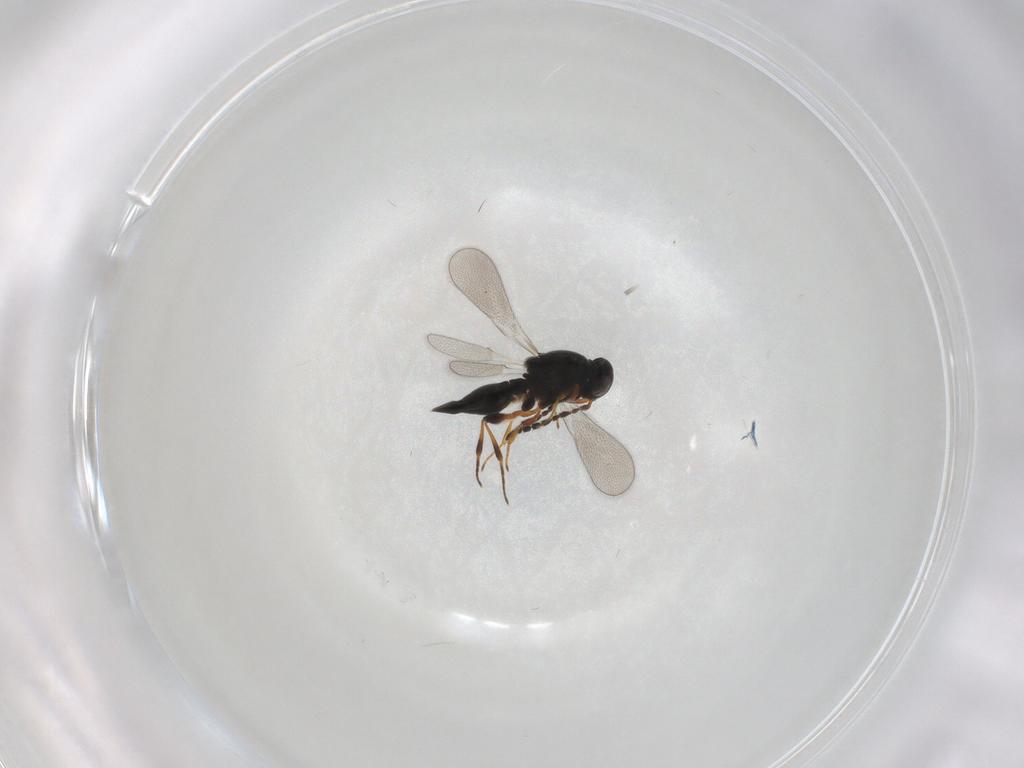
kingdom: Animalia
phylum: Arthropoda
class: Insecta
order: Hymenoptera
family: Platygastridae
